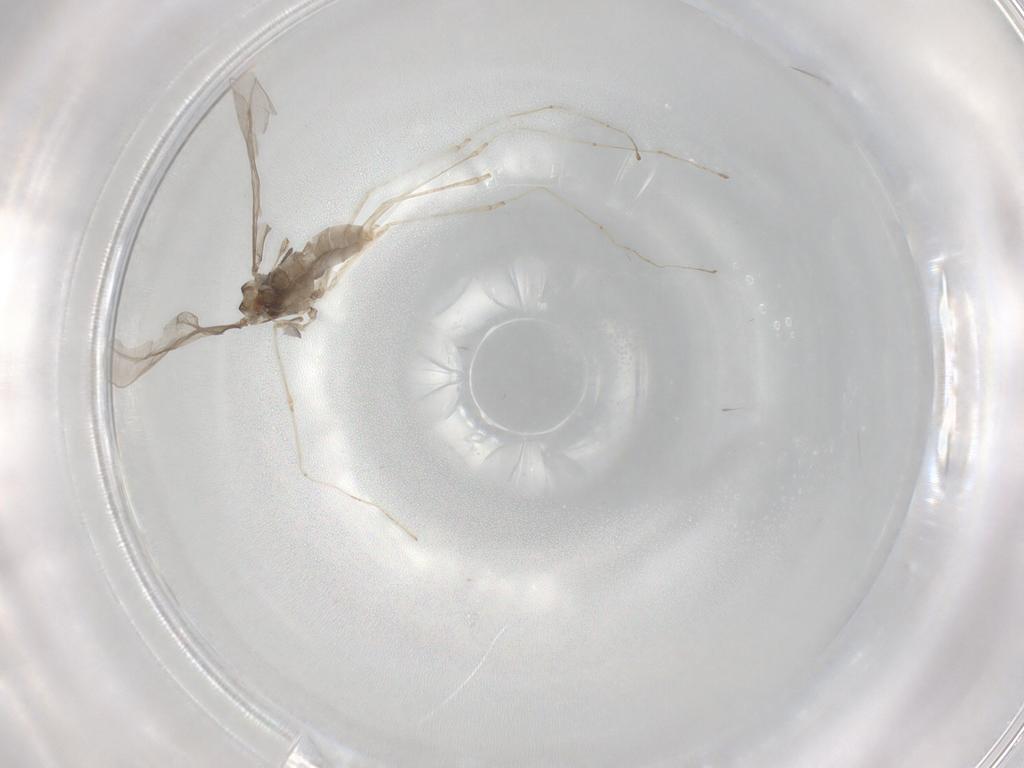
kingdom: Animalia
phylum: Arthropoda
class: Insecta
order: Diptera
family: Cecidomyiidae
